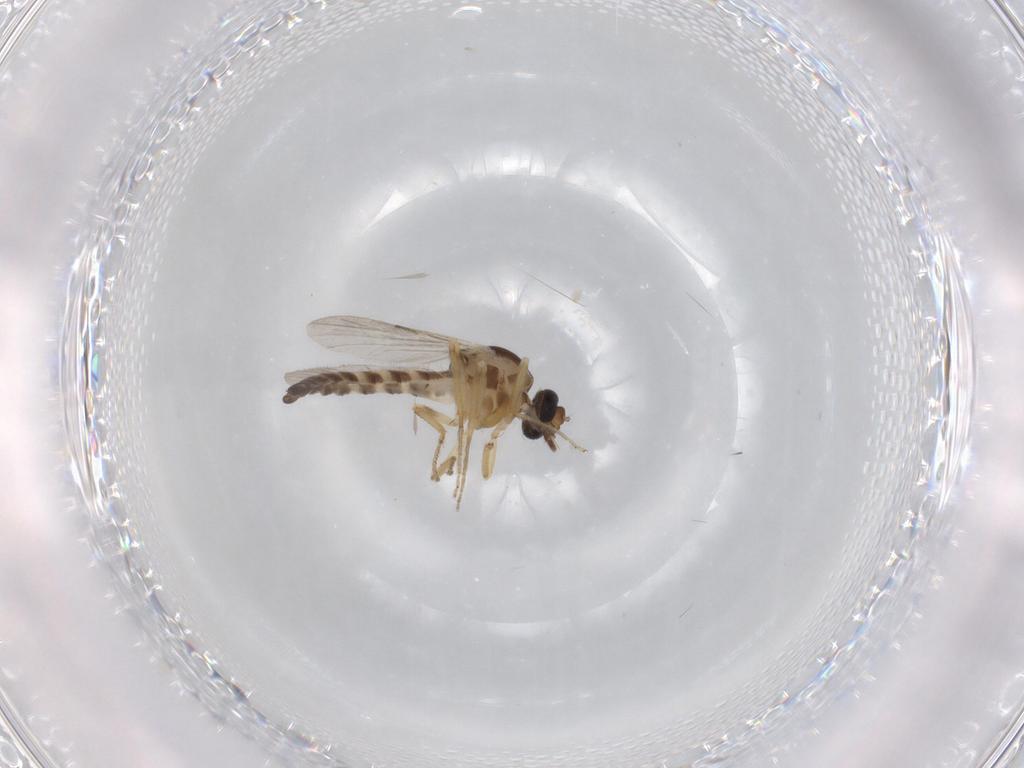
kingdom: Animalia
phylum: Arthropoda
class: Insecta
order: Diptera
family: Ceratopogonidae
